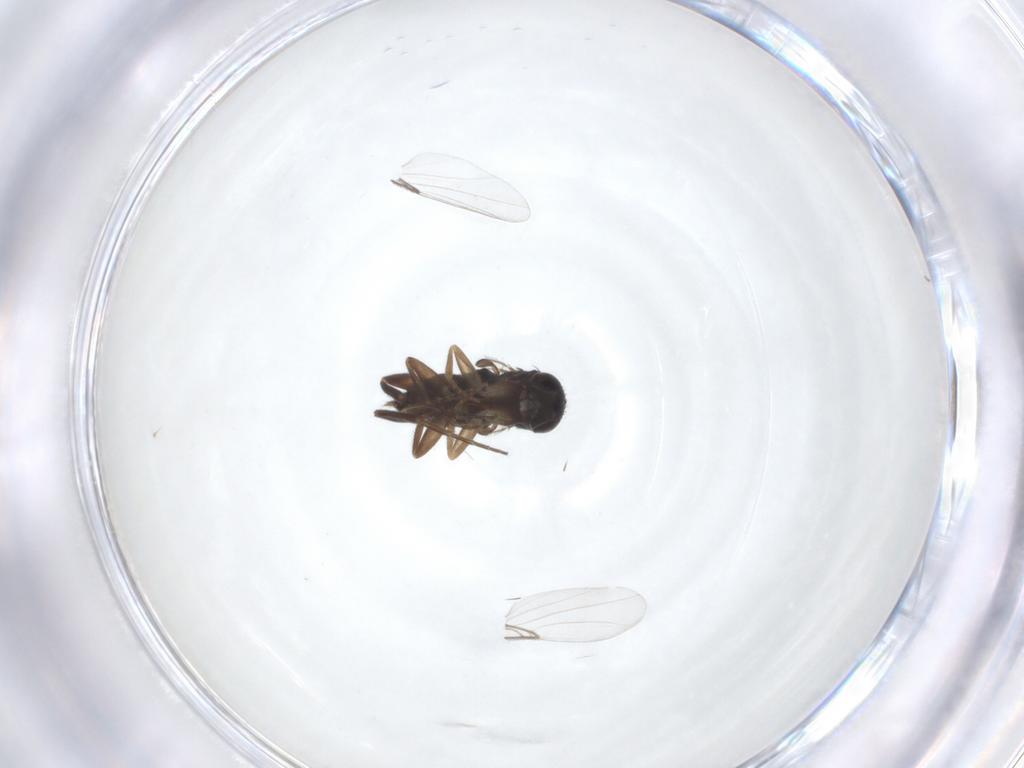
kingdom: Animalia
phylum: Arthropoda
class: Insecta
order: Diptera
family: Phoridae
